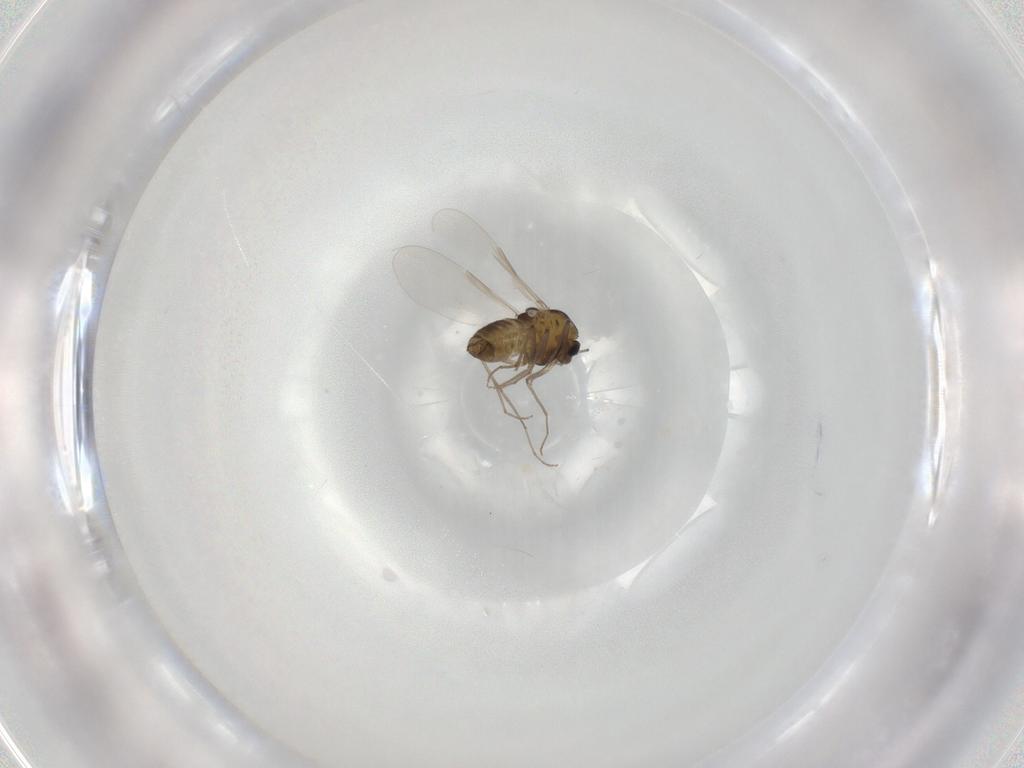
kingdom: Animalia
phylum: Arthropoda
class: Insecta
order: Diptera
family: Chironomidae
